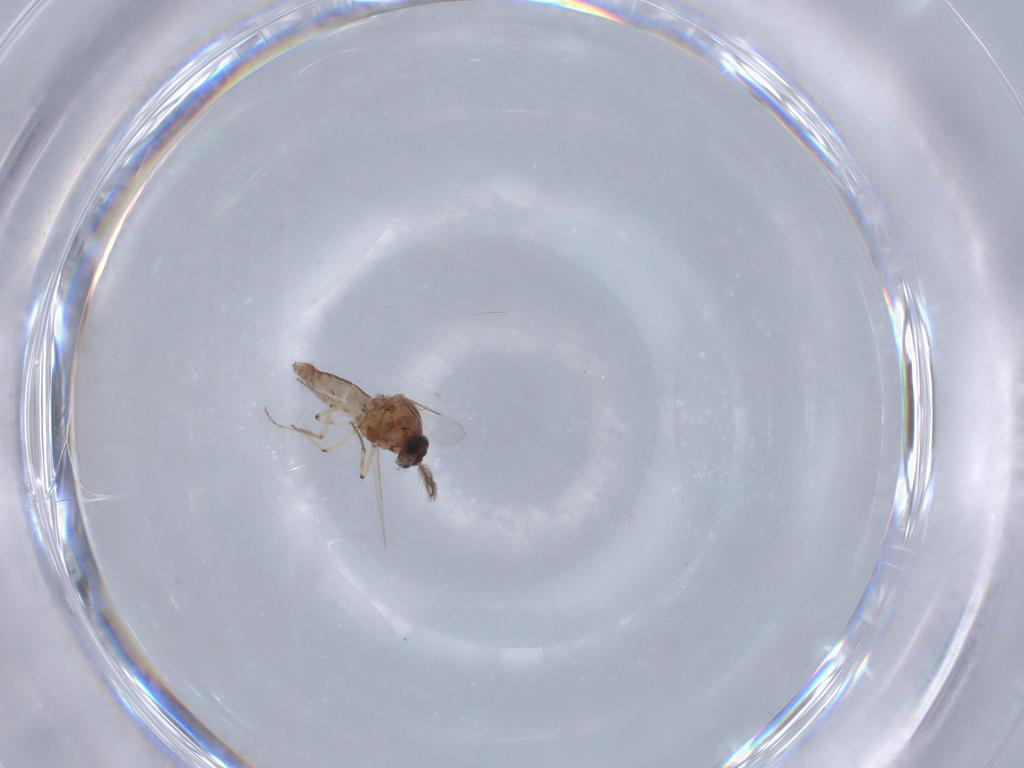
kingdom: Animalia
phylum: Arthropoda
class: Insecta
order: Diptera
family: Ceratopogonidae
